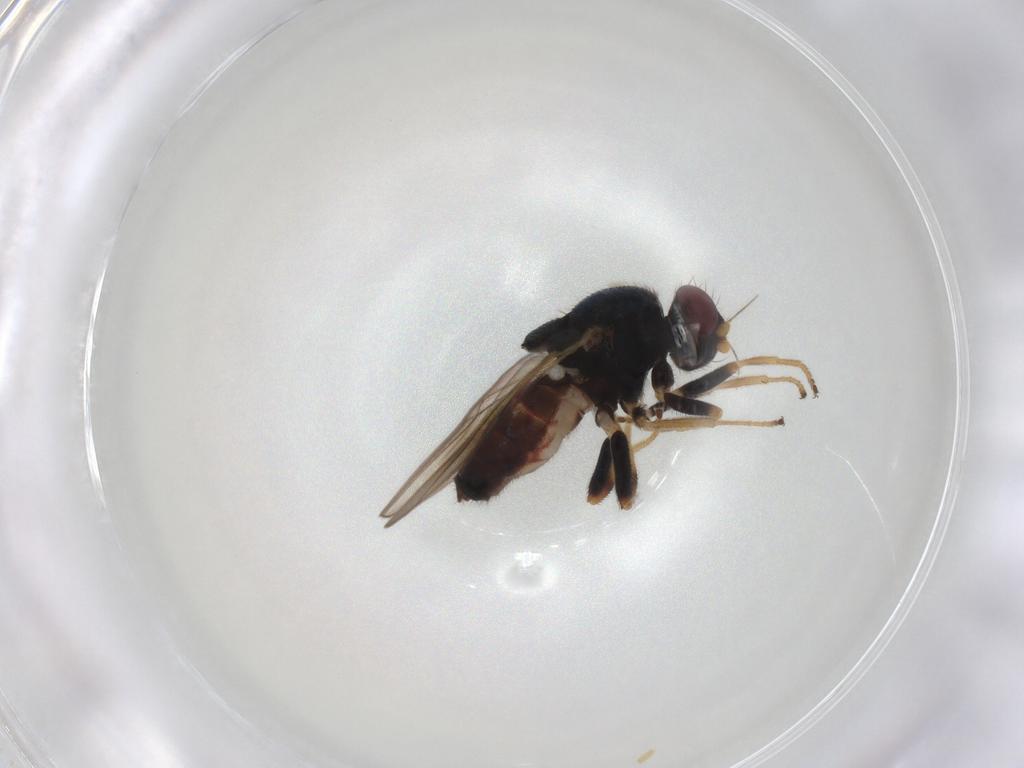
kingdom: Animalia
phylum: Arthropoda
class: Insecta
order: Diptera
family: Chloropidae
